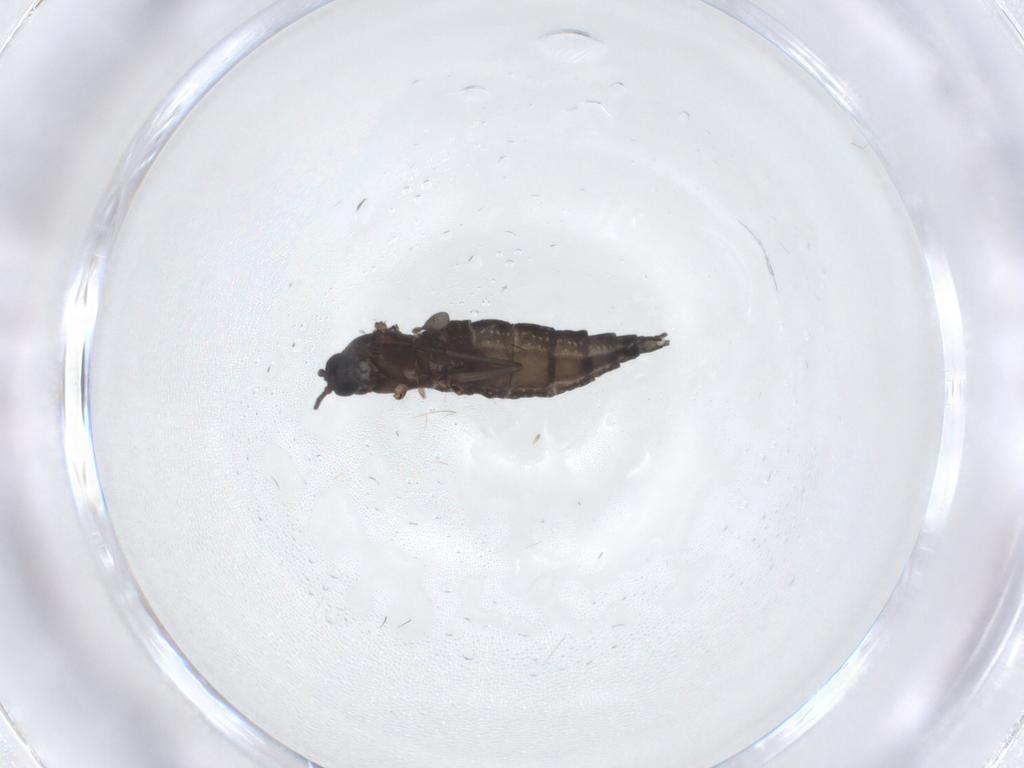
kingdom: Animalia
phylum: Arthropoda
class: Insecta
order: Diptera
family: Sciaridae
